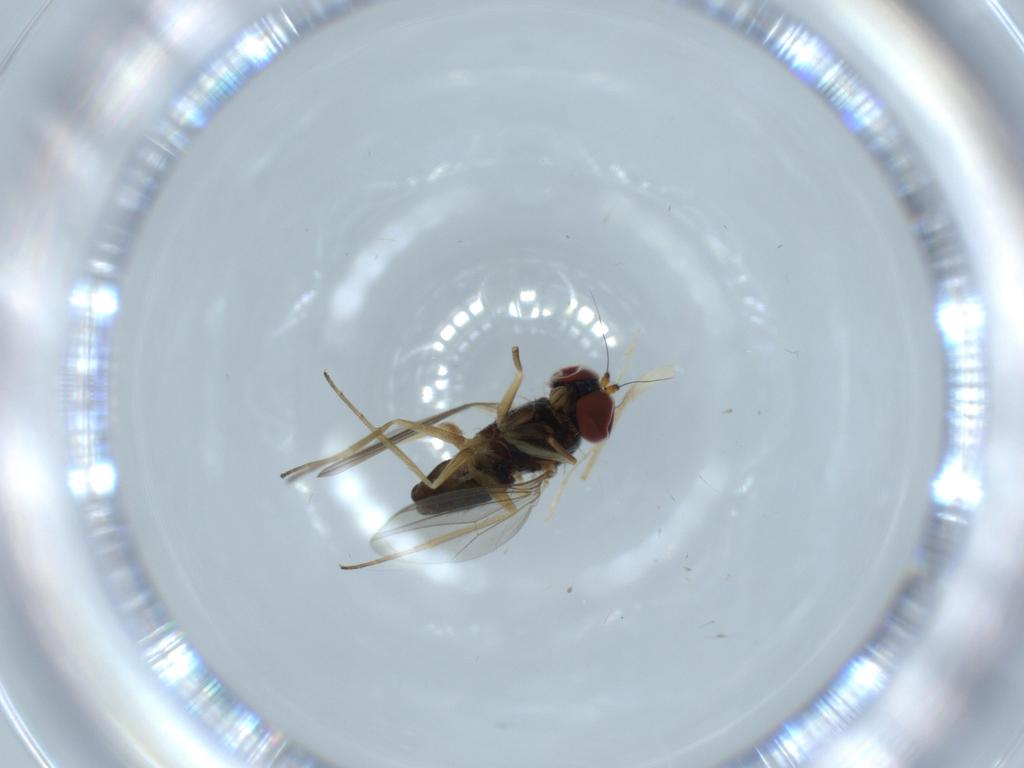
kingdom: Animalia
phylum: Arthropoda
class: Insecta
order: Diptera
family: Dolichopodidae
